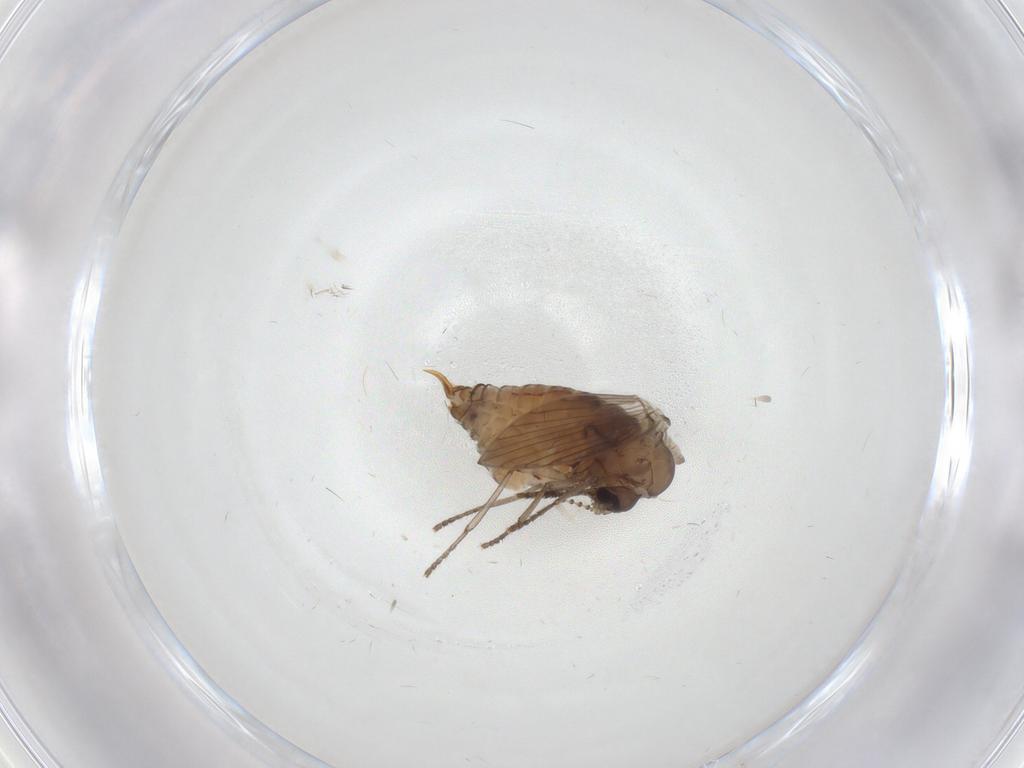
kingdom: Animalia
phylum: Arthropoda
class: Insecta
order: Diptera
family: Psychodidae
